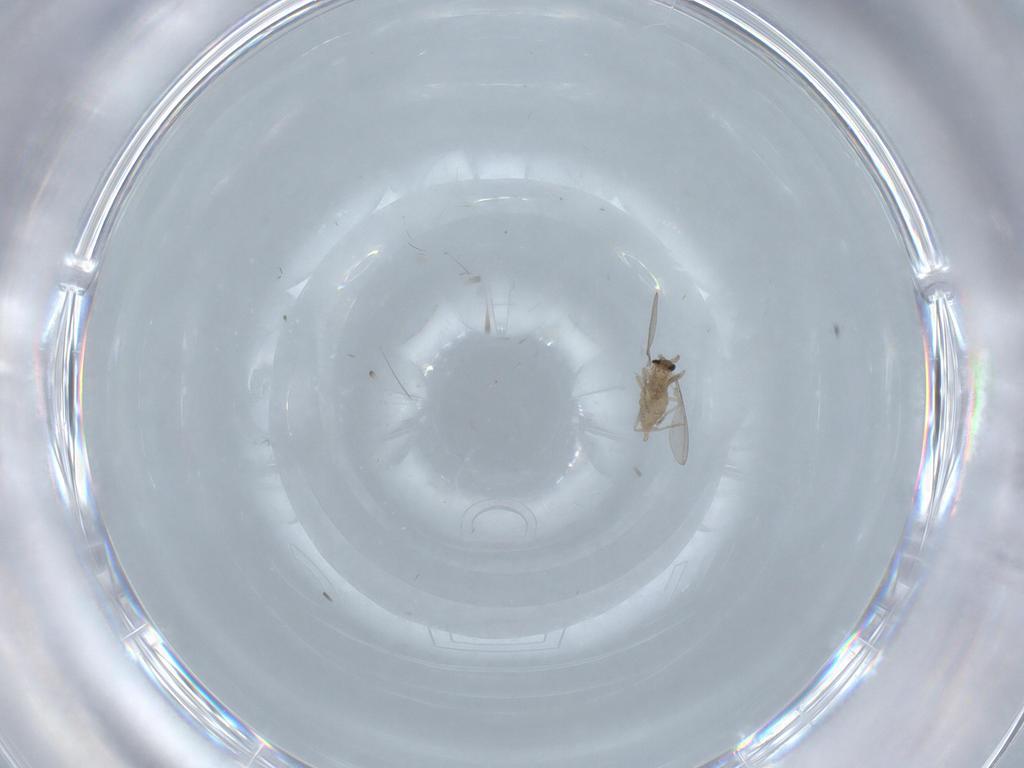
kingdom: Animalia
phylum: Arthropoda
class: Insecta
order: Diptera
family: Cecidomyiidae
